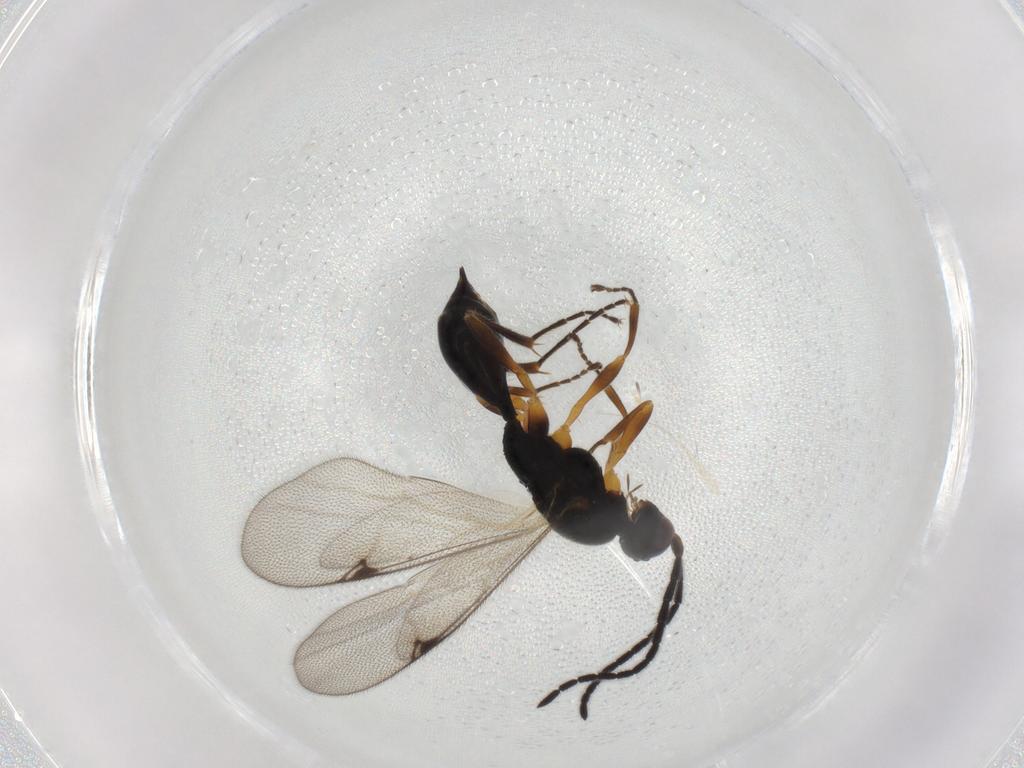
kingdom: Animalia
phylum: Arthropoda
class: Insecta
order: Hymenoptera
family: Proctotrupidae
